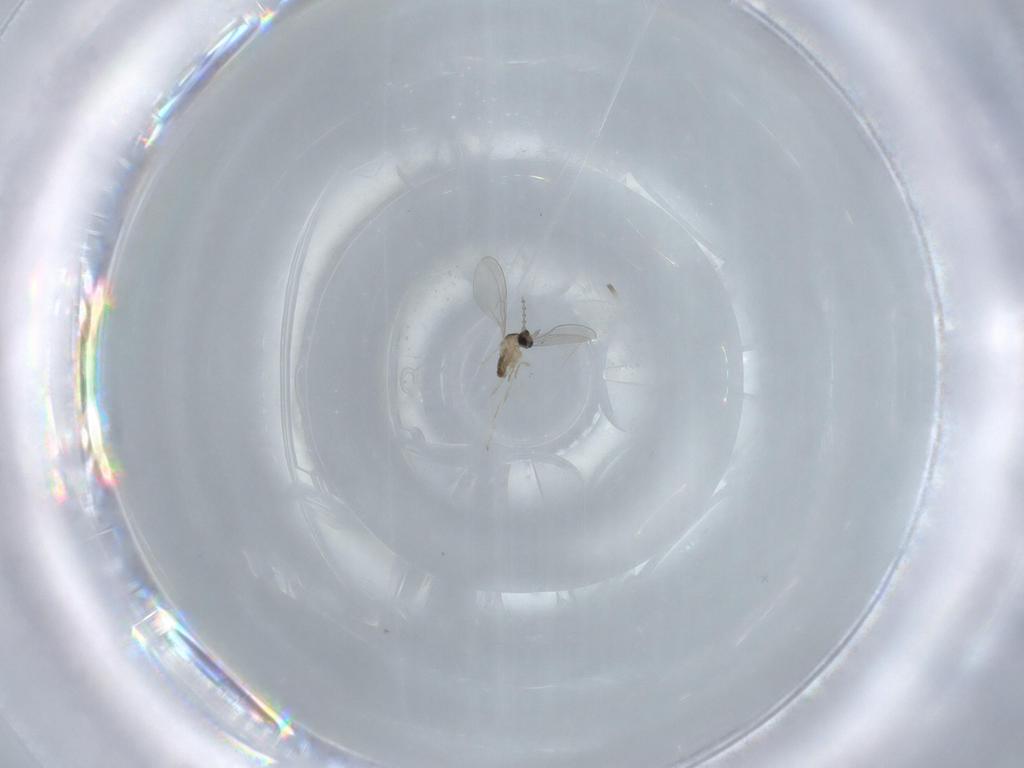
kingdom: Animalia
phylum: Arthropoda
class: Insecta
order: Diptera
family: Cecidomyiidae
